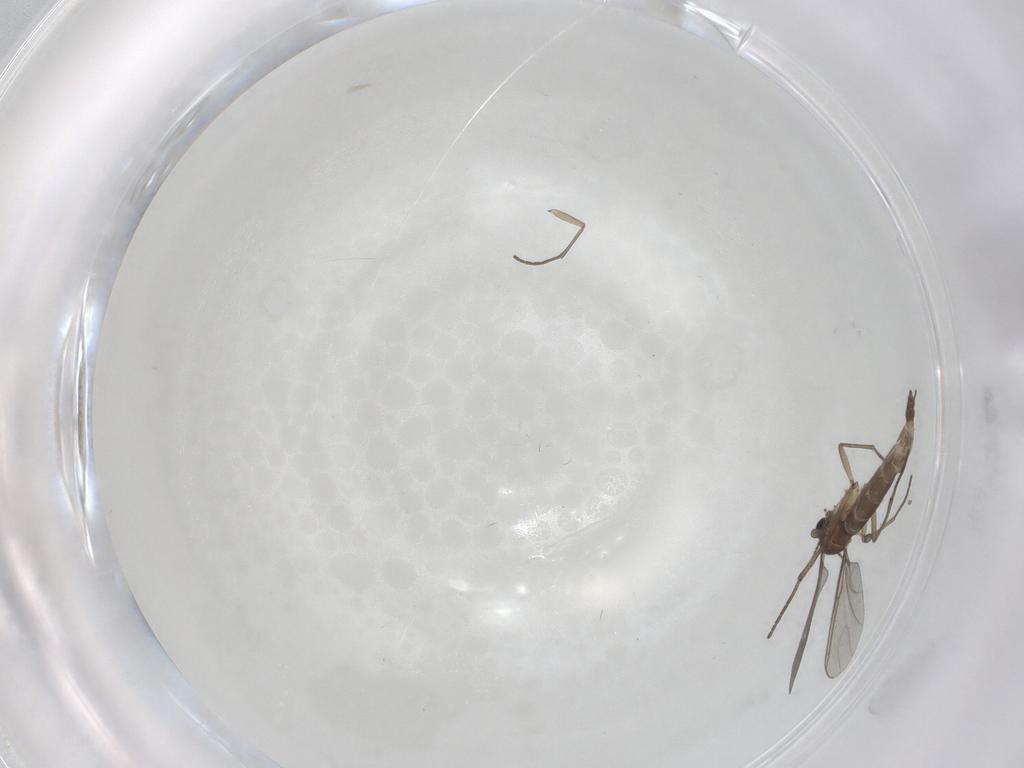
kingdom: Animalia
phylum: Arthropoda
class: Insecta
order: Diptera
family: Sciaridae
